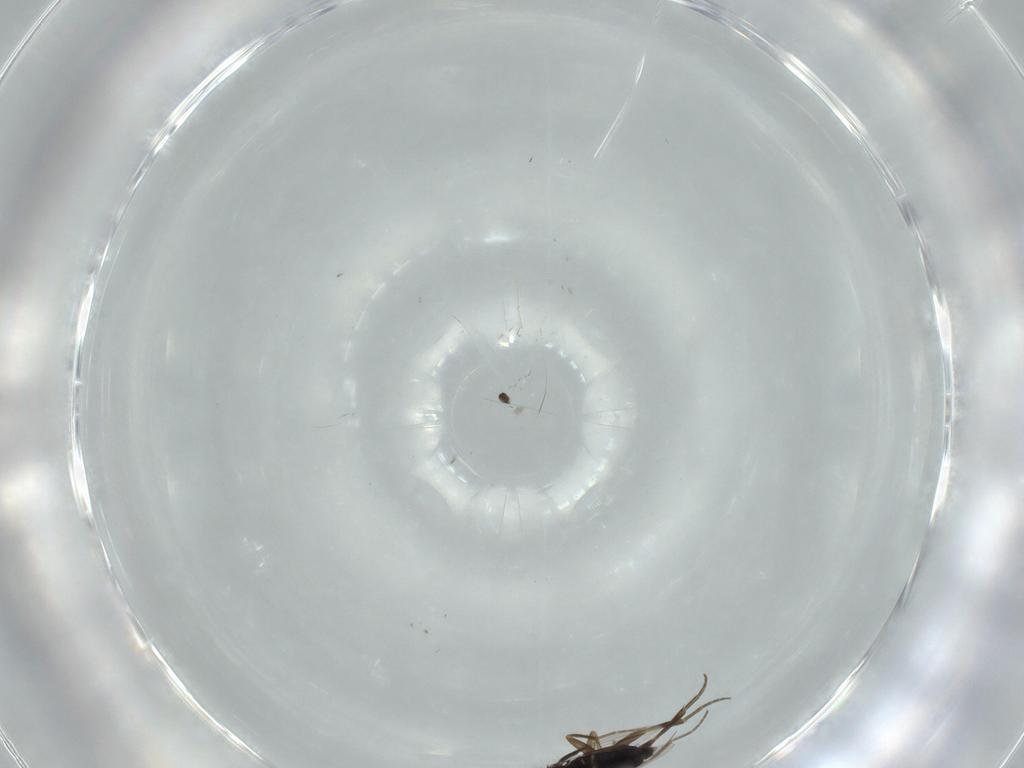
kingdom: Animalia
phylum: Arthropoda
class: Insecta
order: Diptera
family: Phoridae
